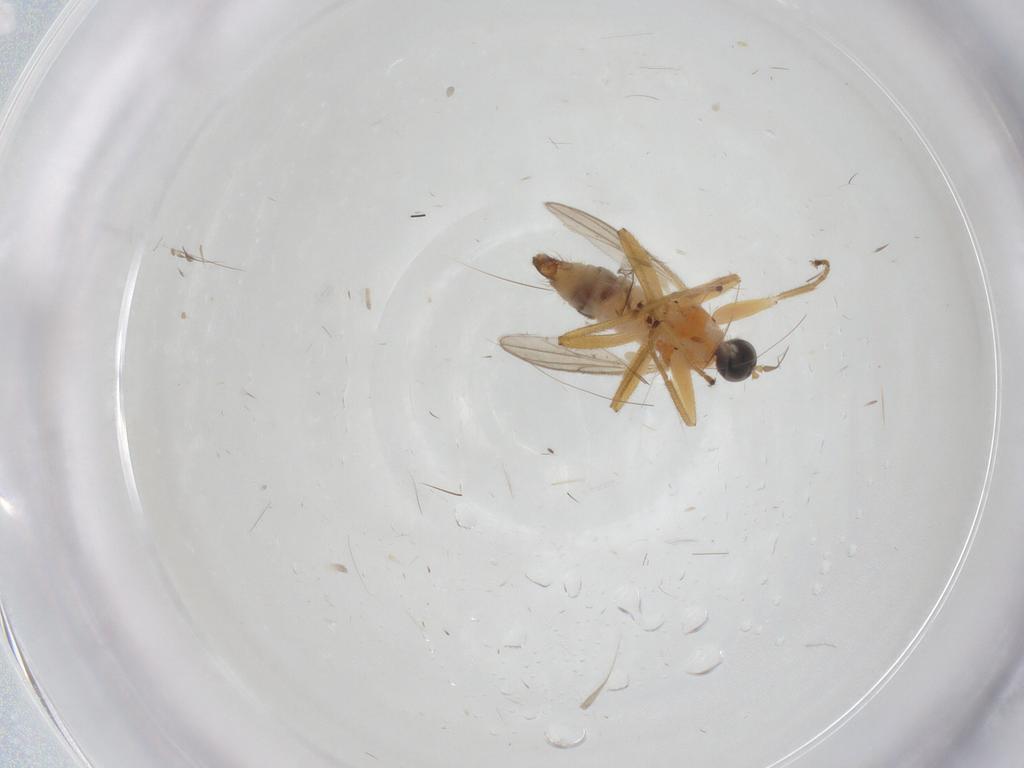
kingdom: Animalia
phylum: Arthropoda
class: Insecta
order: Diptera
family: Hybotidae
